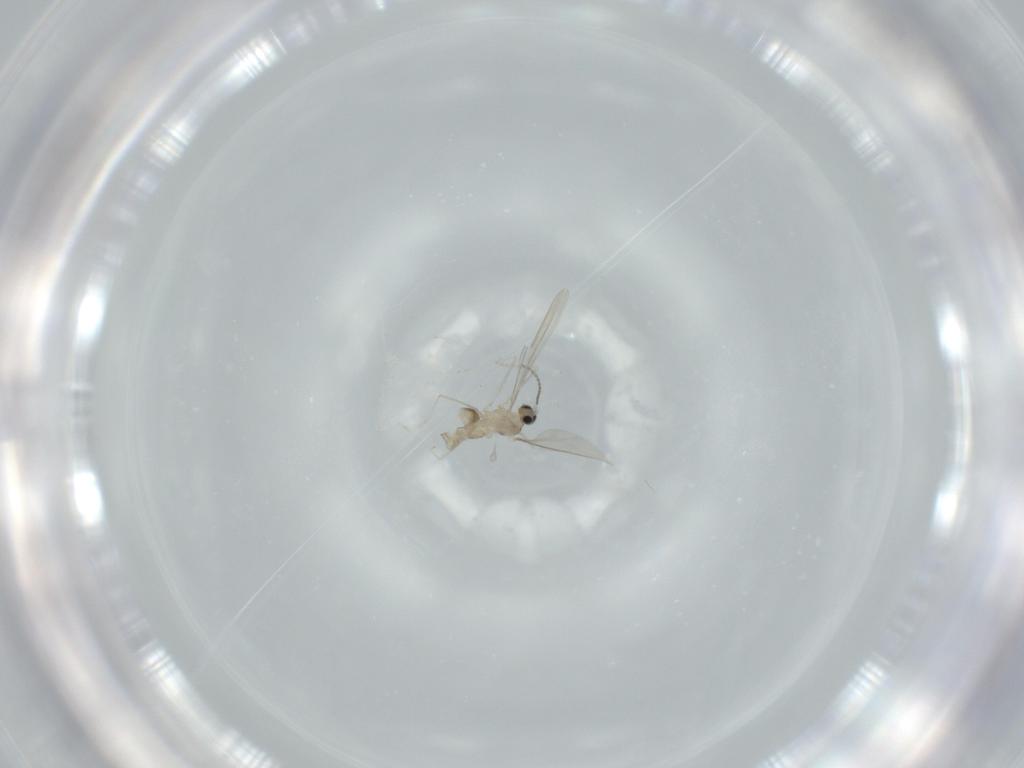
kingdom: Animalia
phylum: Arthropoda
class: Insecta
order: Diptera
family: Cecidomyiidae
